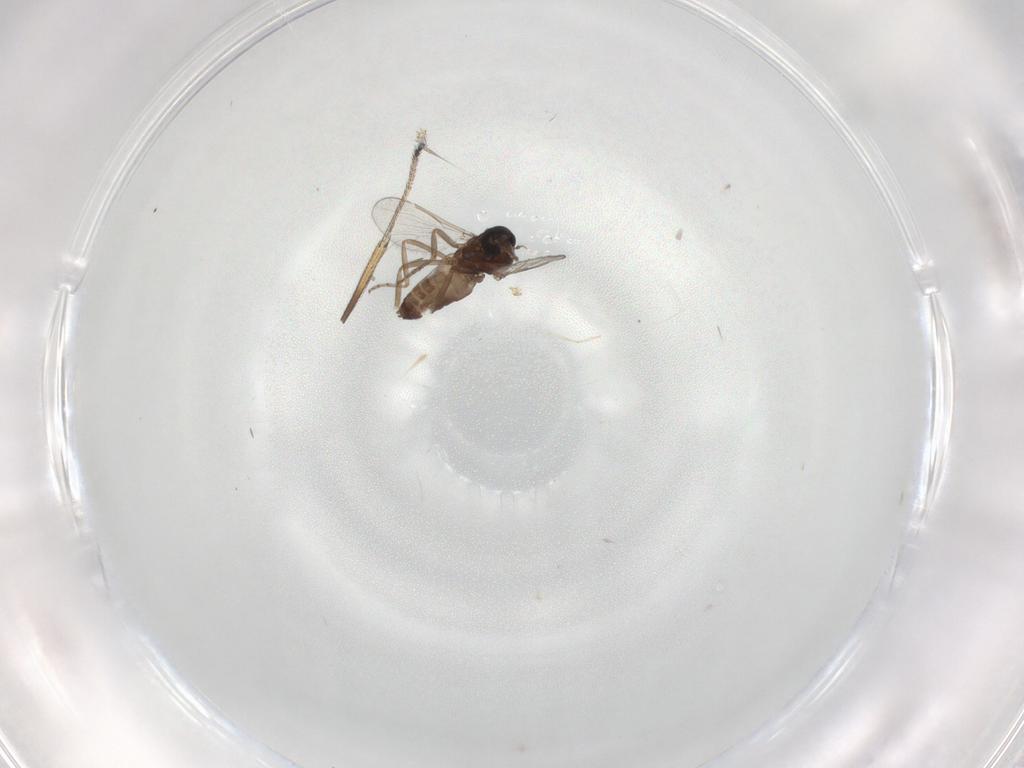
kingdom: Animalia
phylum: Arthropoda
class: Insecta
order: Diptera
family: Ceratopogonidae
